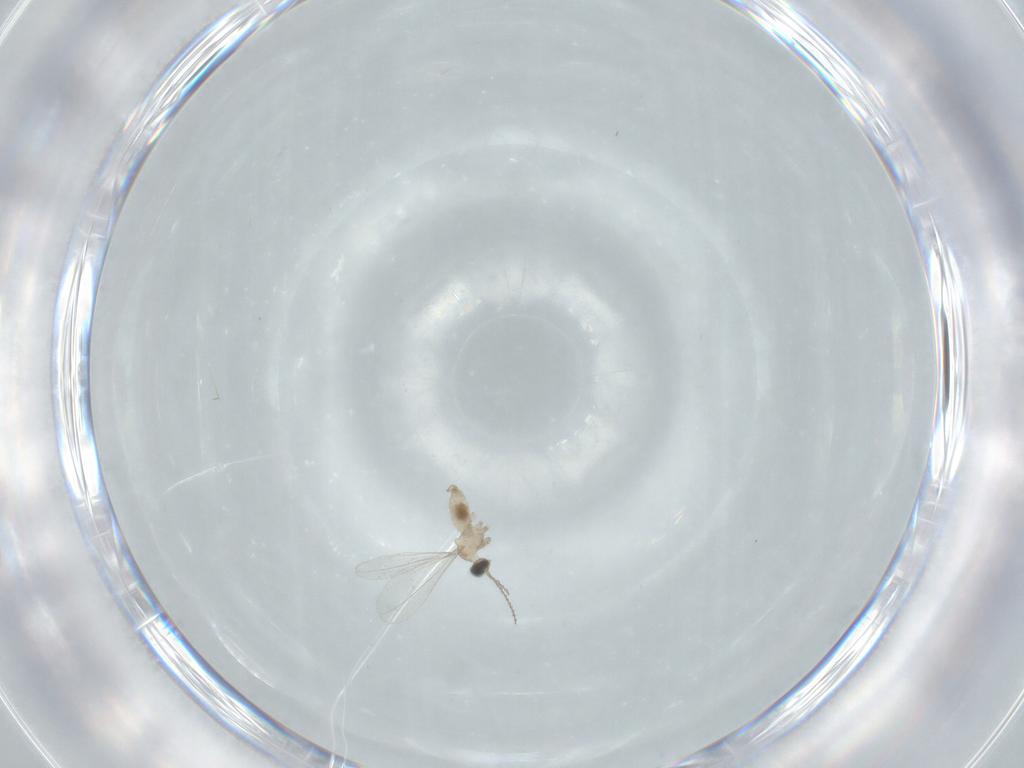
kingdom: Animalia
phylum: Arthropoda
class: Insecta
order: Diptera
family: Cecidomyiidae
